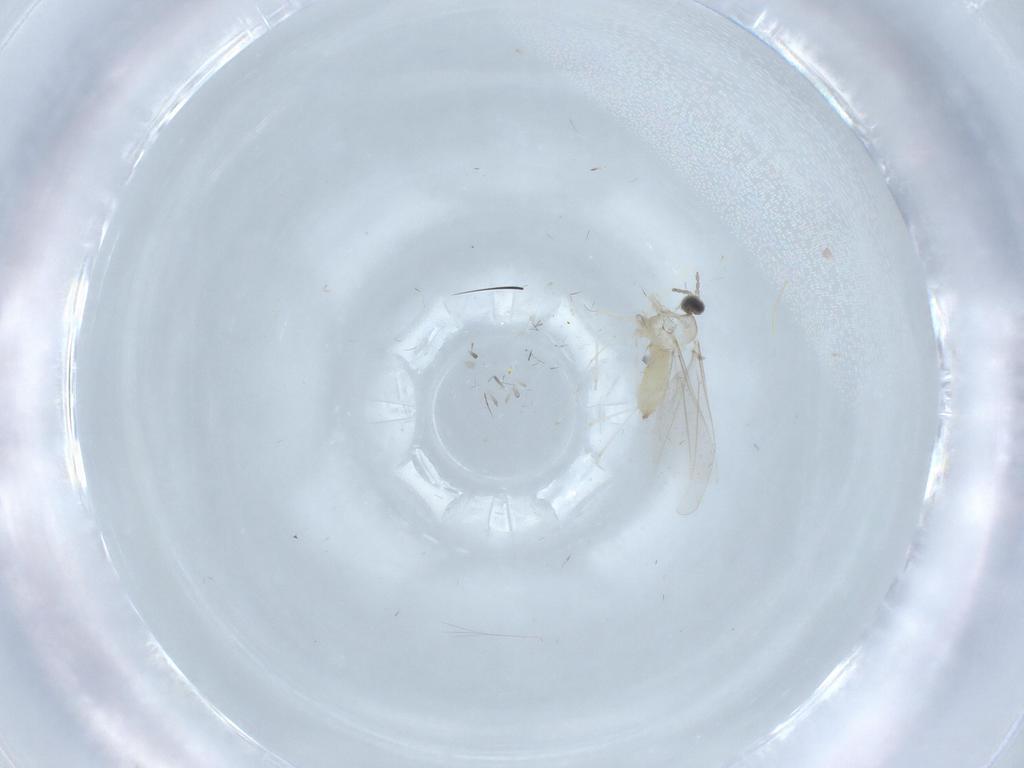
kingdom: Animalia
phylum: Arthropoda
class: Insecta
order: Diptera
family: Cecidomyiidae
